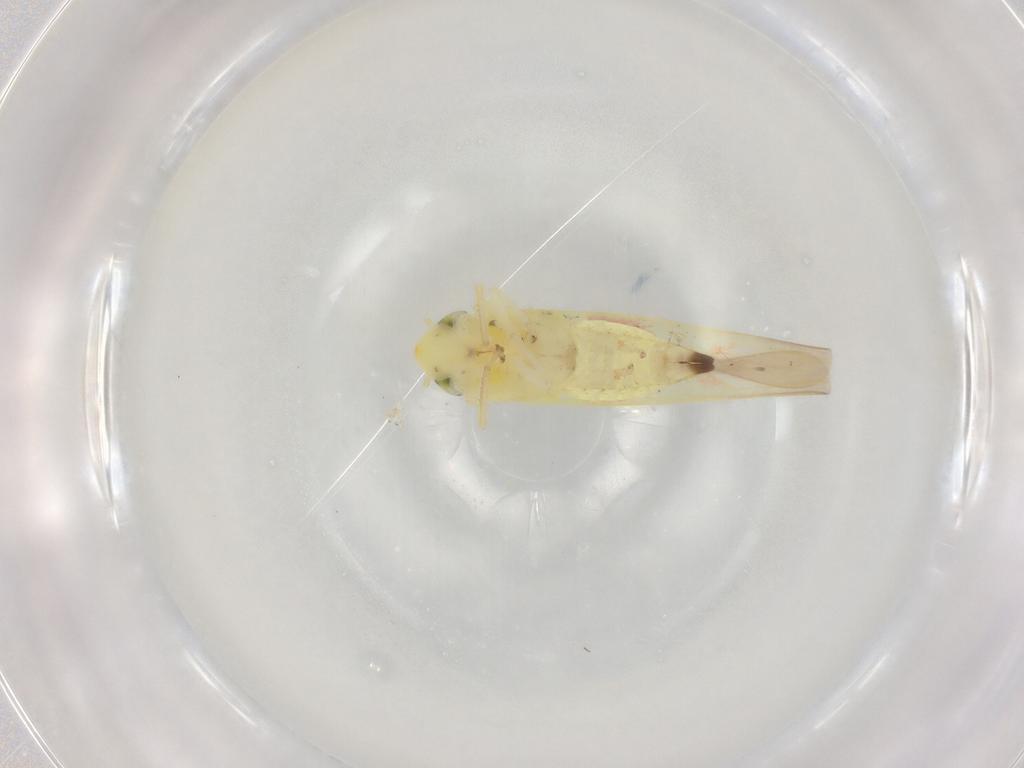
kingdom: Animalia
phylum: Arthropoda
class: Insecta
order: Hemiptera
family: Cicadellidae
